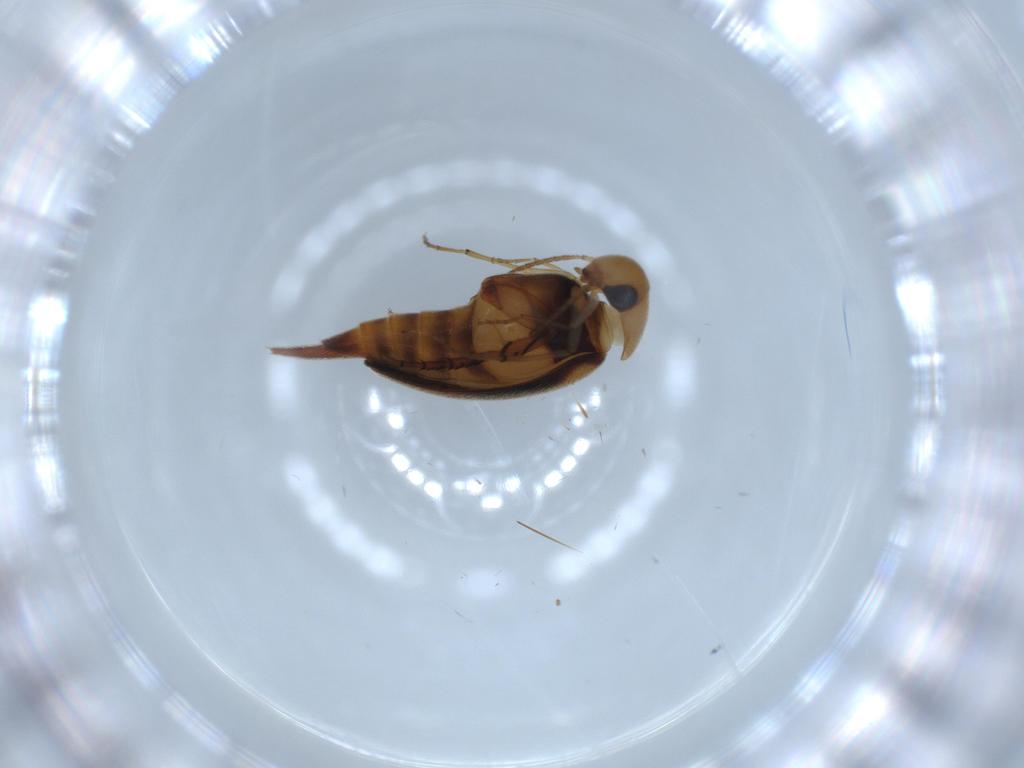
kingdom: Animalia
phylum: Arthropoda
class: Insecta
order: Coleoptera
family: Mordellidae
